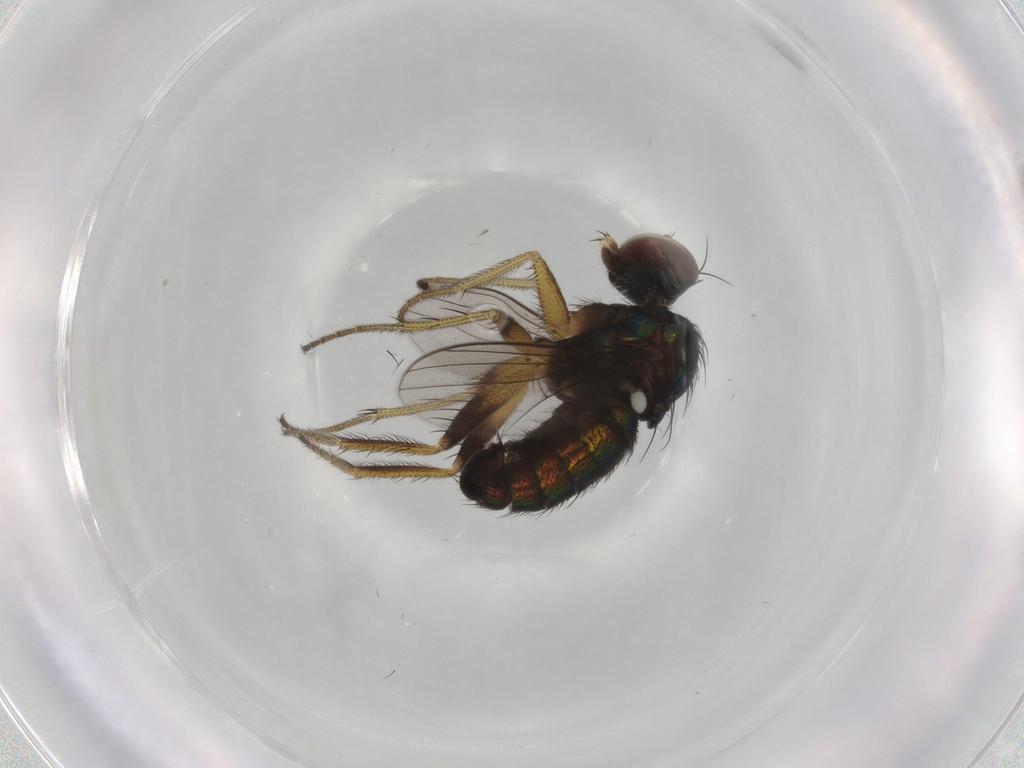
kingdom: Animalia
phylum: Arthropoda
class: Insecta
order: Diptera
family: Dolichopodidae
